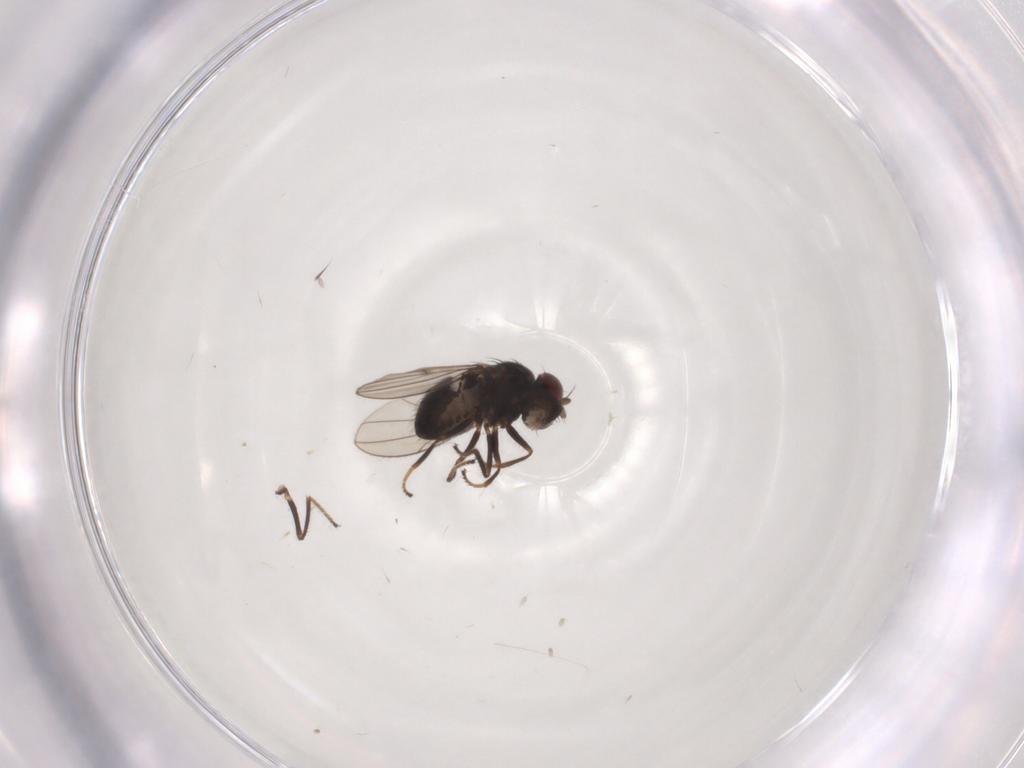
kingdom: Animalia
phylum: Arthropoda
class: Insecta
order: Diptera
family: Phoridae
